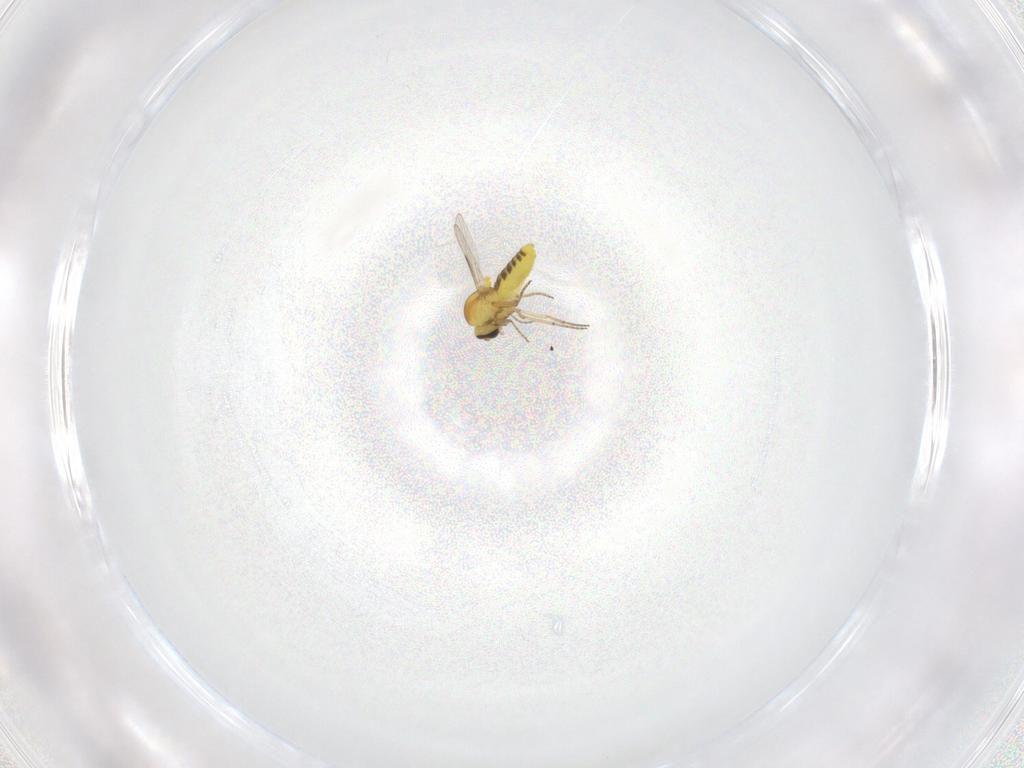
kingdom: Animalia
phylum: Arthropoda
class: Insecta
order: Diptera
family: Ceratopogonidae
